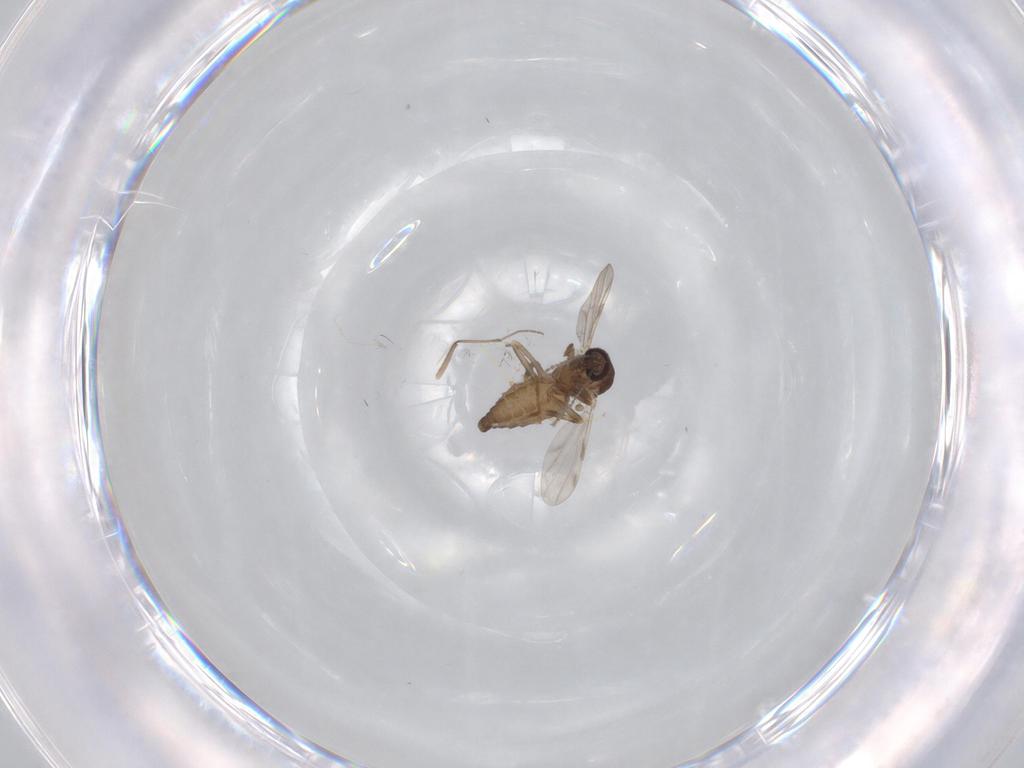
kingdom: Animalia
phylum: Arthropoda
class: Insecta
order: Diptera
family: Ceratopogonidae
